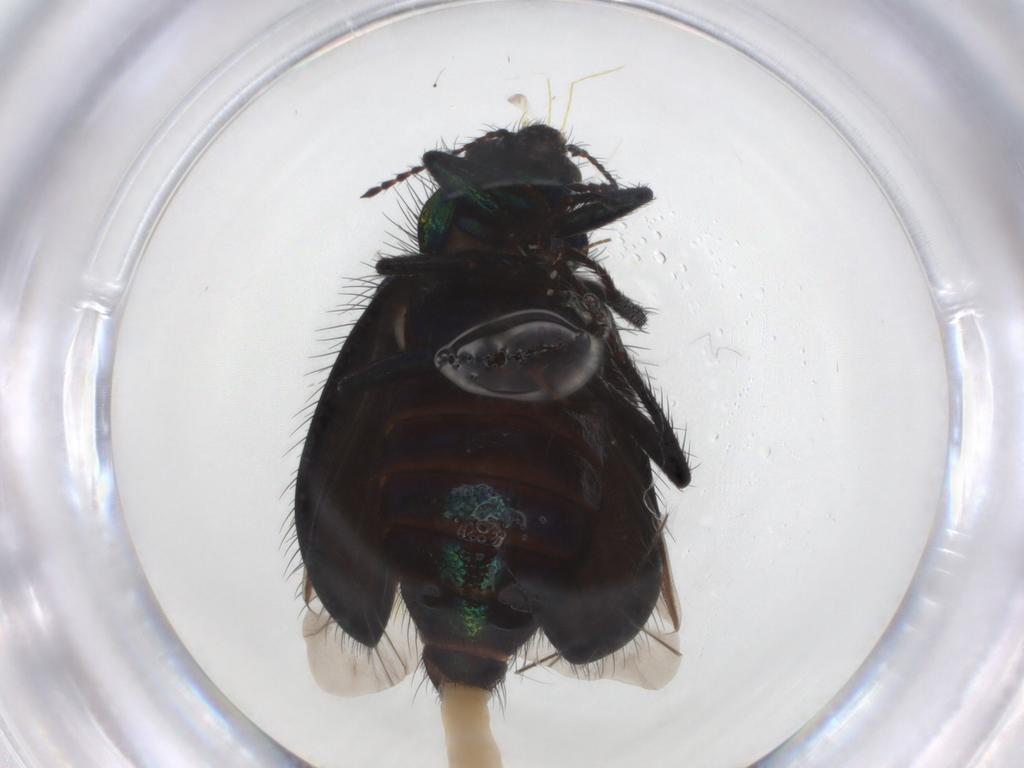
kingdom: Animalia
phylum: Arthropoda
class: Insecta
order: Coleoptera
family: Melyridae
